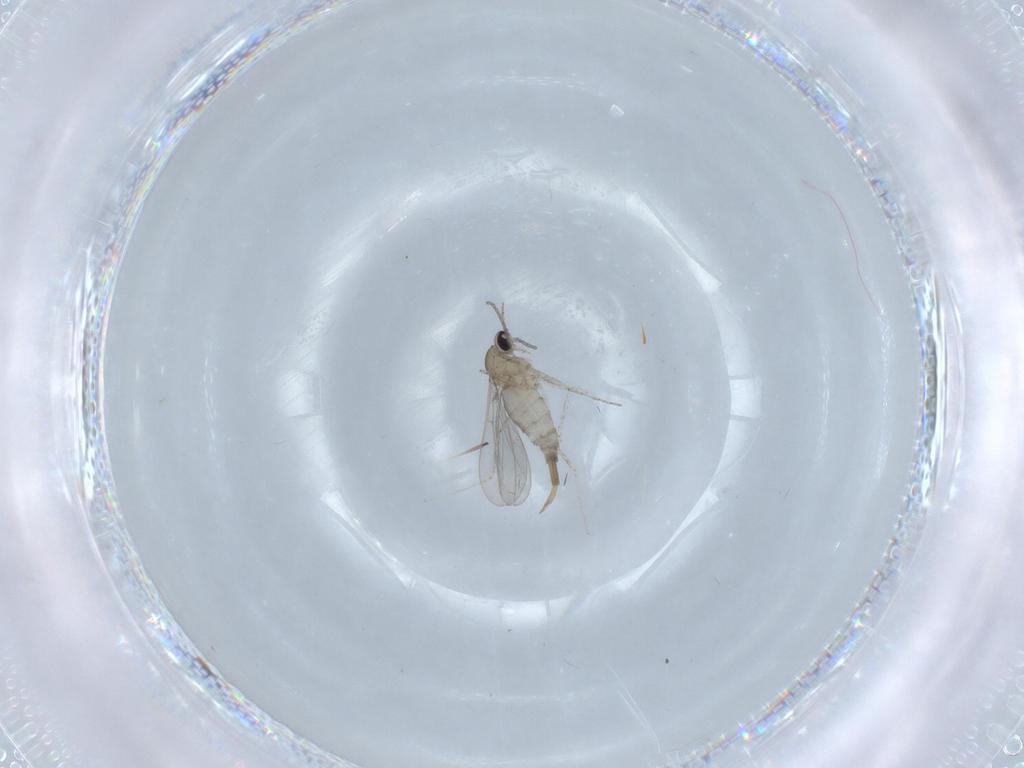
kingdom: Animalia
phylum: Arthropoda
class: Insecta
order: Diptera
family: Cecidomyiidae
